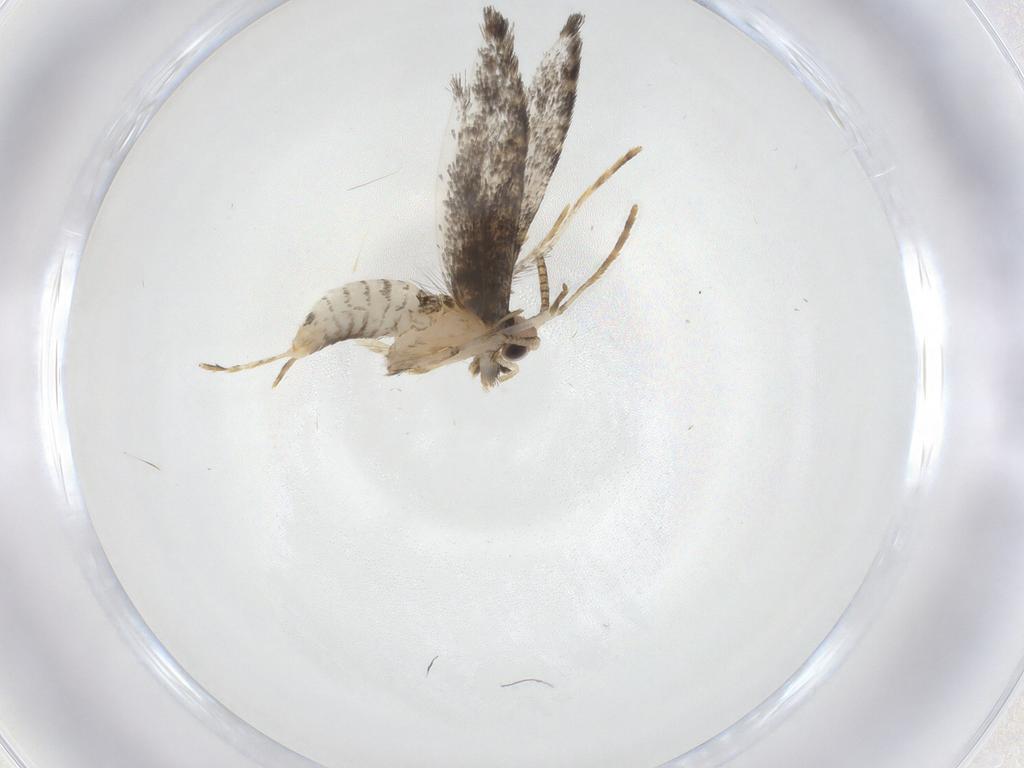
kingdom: Animalia
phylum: Arthropoda
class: Insecta
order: Lepidoptera
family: Tineidae
